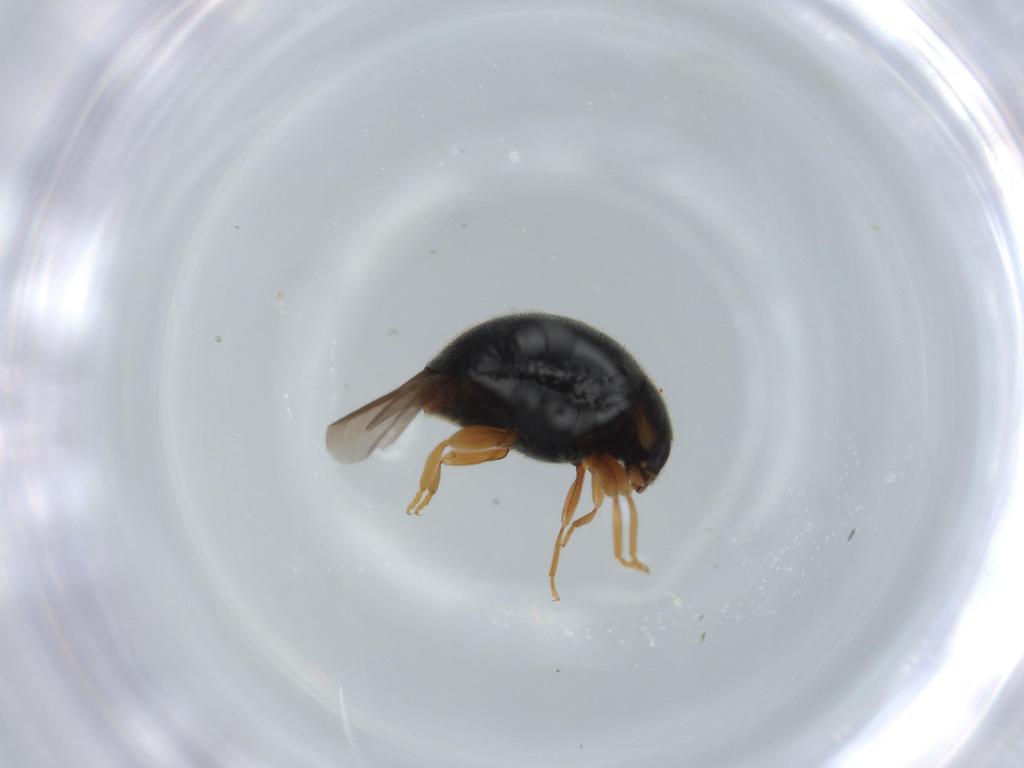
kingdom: Animalia
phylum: Arthropoda
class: Insecta
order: Coleoptera
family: Coccinellidae
